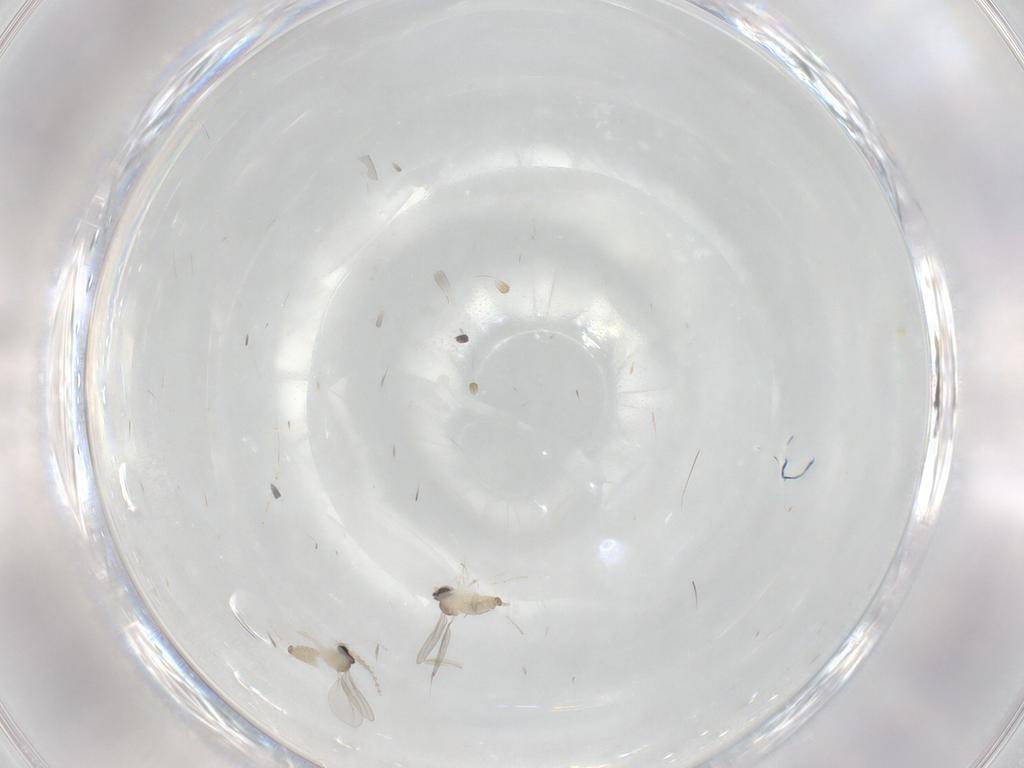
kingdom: Animalia
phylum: Arthropoda
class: Insecta
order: Diptera
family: Cecidomyiidae
